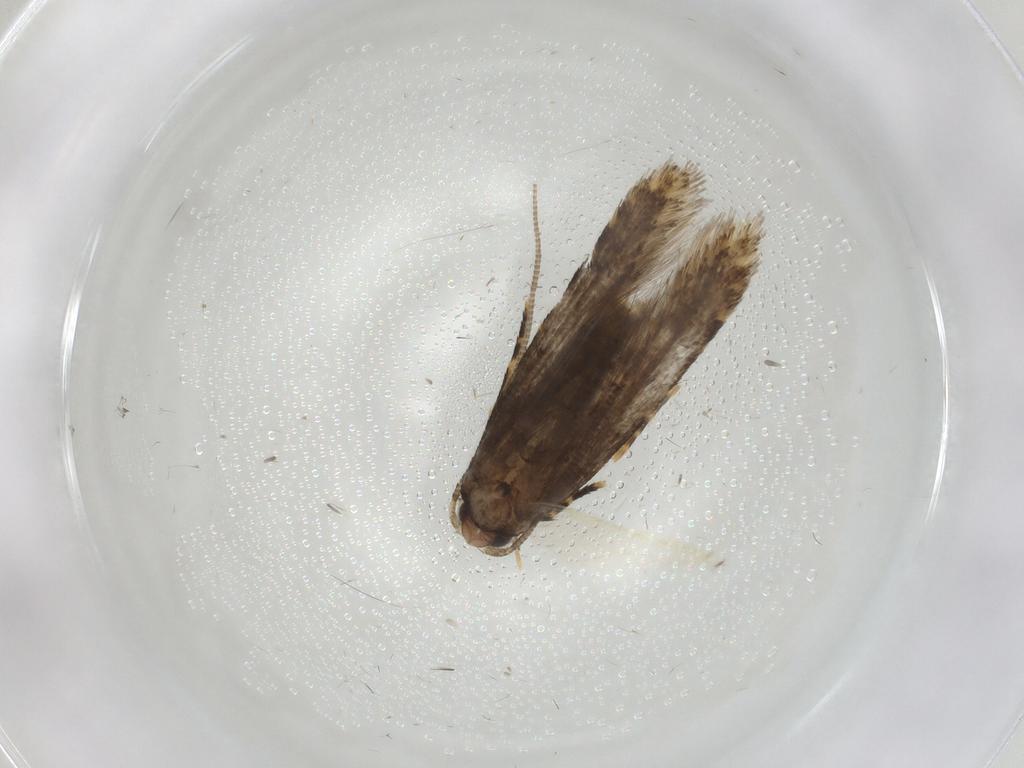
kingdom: Animalia
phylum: Arthropoda
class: Insecta
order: Lepidoptera
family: Tineidae
